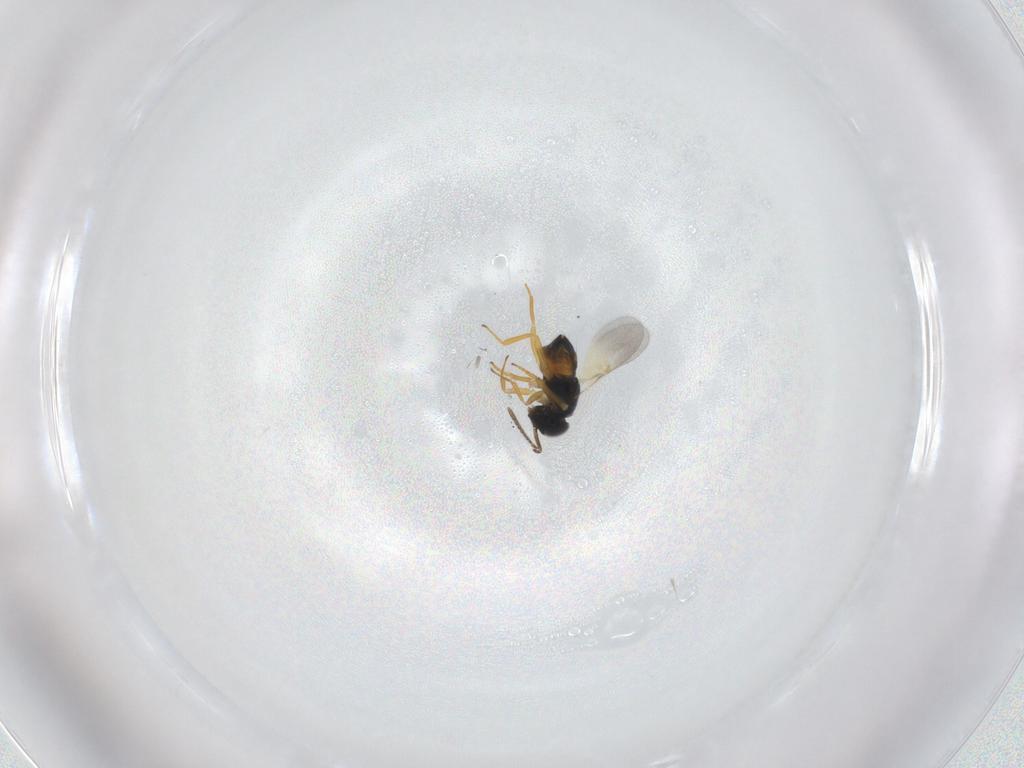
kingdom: Animalia
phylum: Arthropoda
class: Insecta
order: Hymenoptera
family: Encyrtidae
